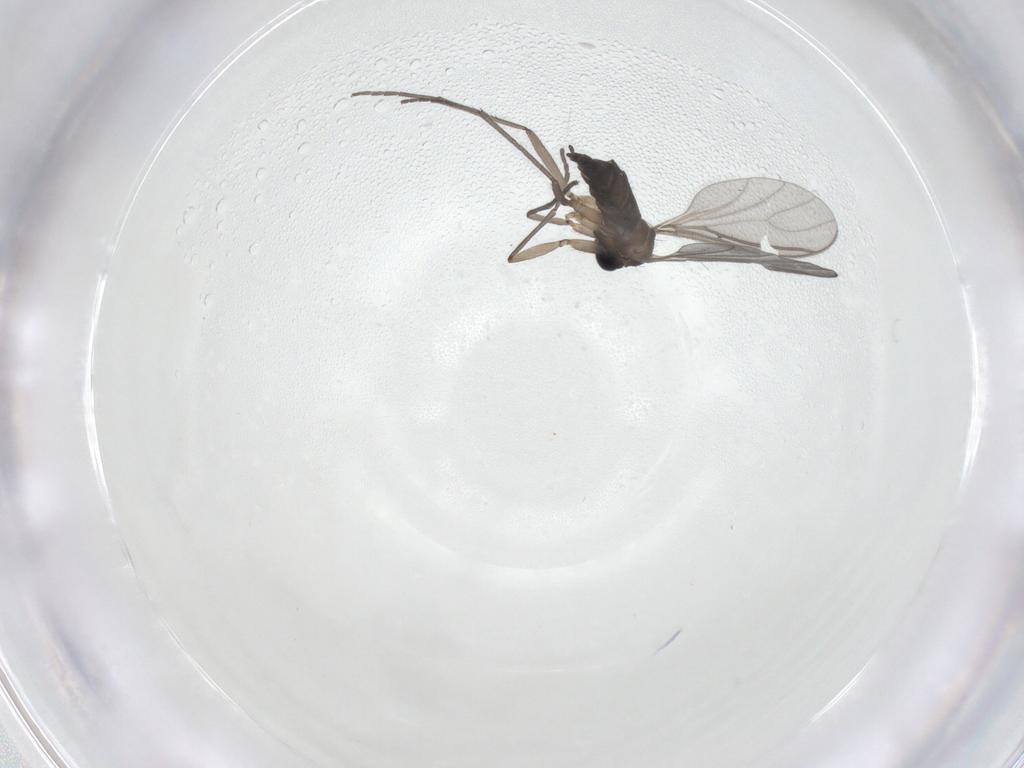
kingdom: Animalia
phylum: Arthropoda
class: Insecta
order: Diptera
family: Sciaridae
